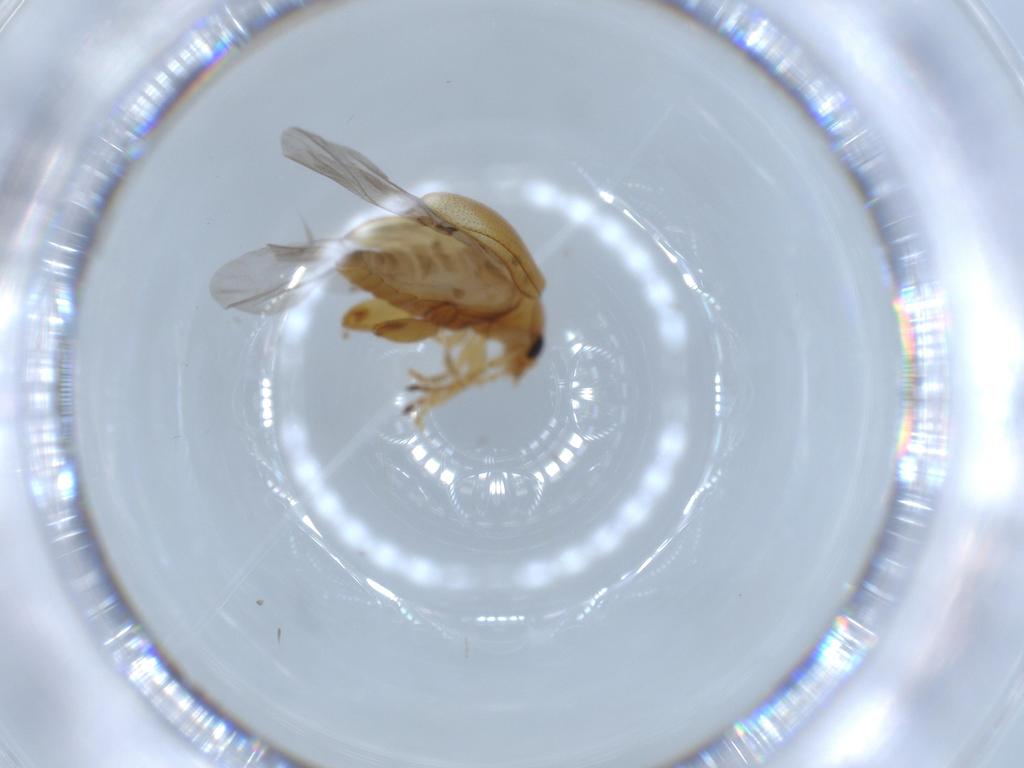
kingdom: Animalia
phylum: Arthropoda
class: Insecta
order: Coleoptera
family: Chrysomelidae
